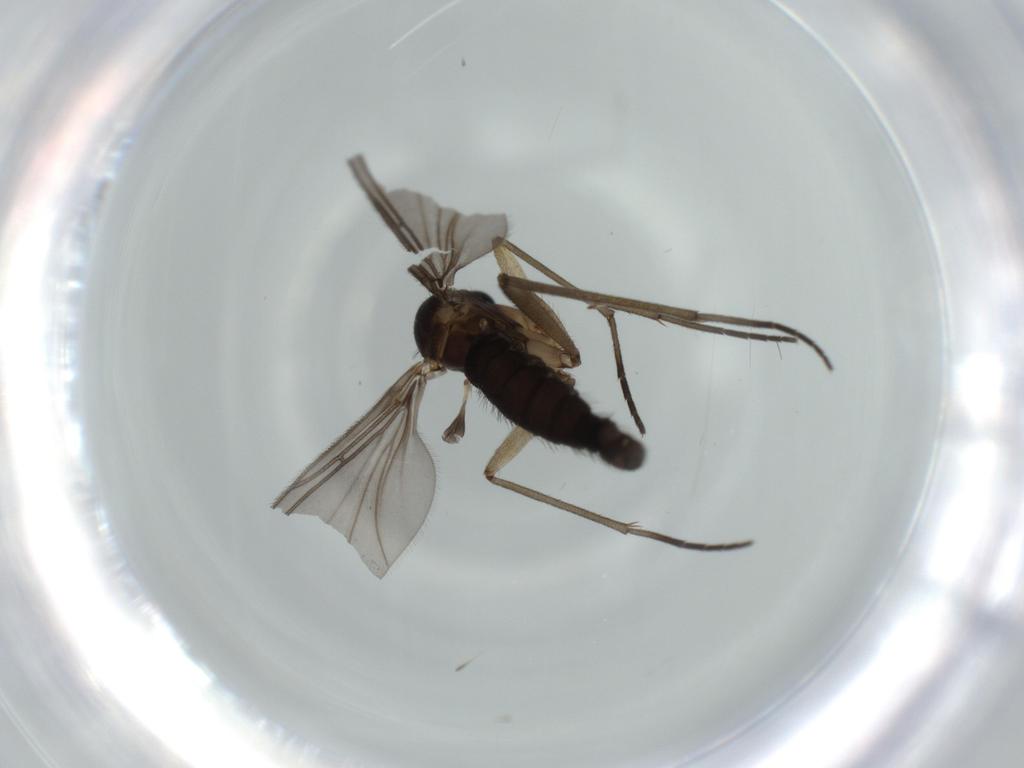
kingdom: Animalia
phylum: Arthropoda
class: Insecta
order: Diptera
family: Sciaridae
